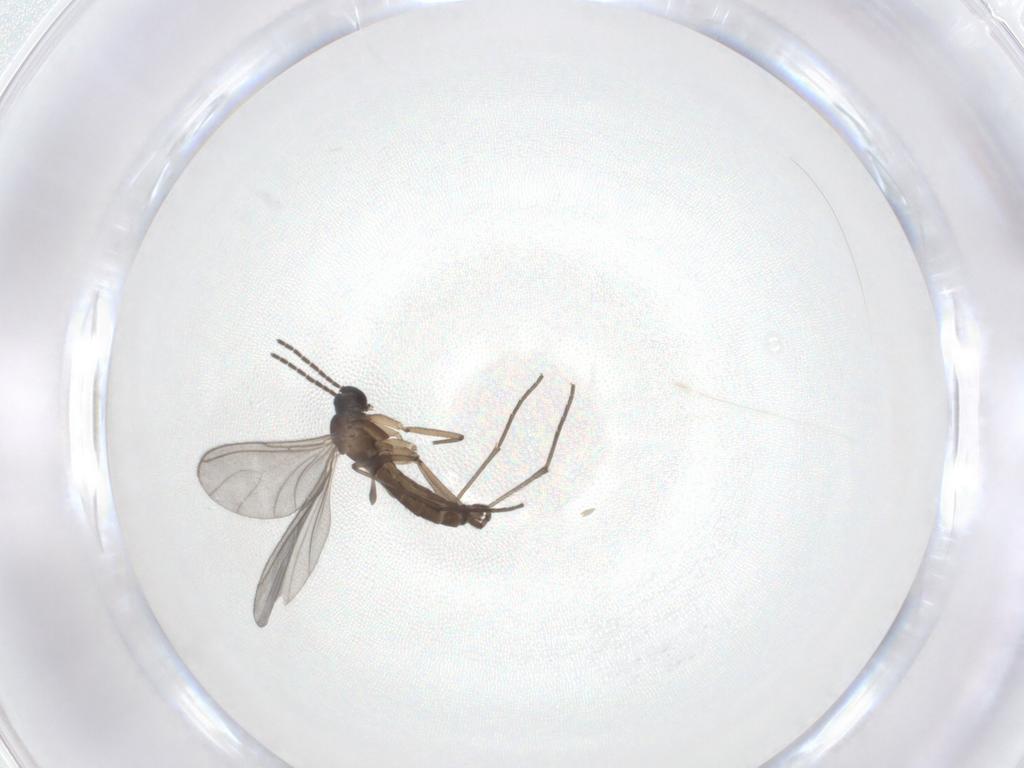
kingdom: Animalia
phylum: Arthropoda
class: Insecta
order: Diptera
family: Sciaridae
